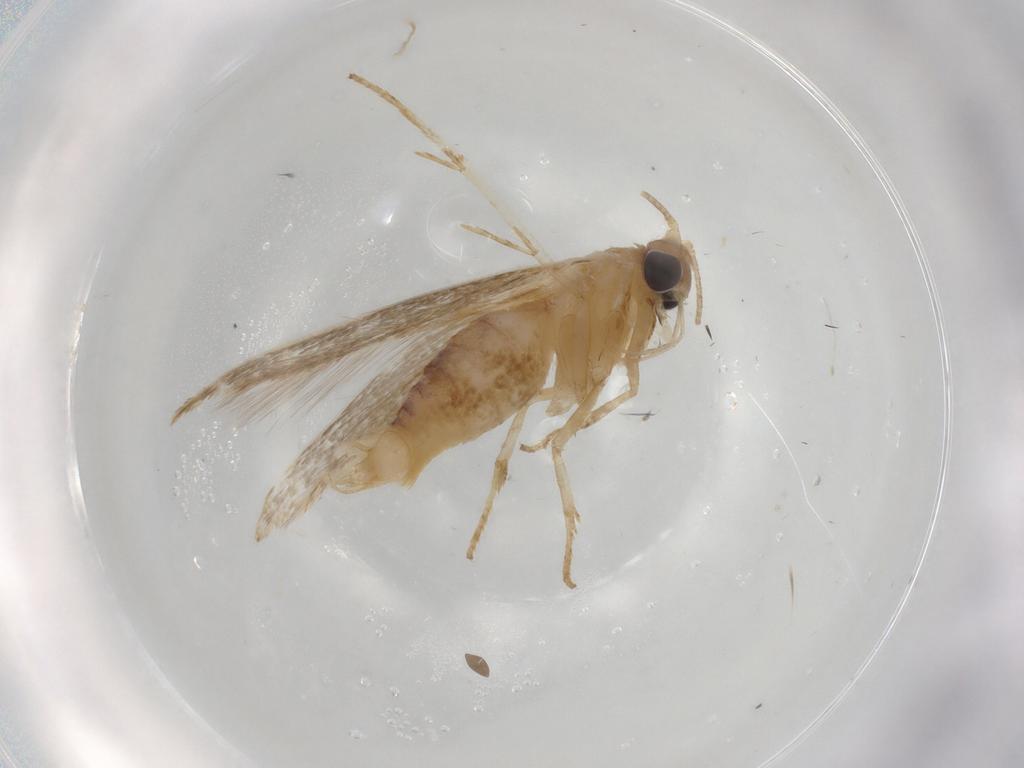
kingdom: Animalia
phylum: Arthropoda
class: Insecta
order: Lepidoptera
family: Blastobasidae
